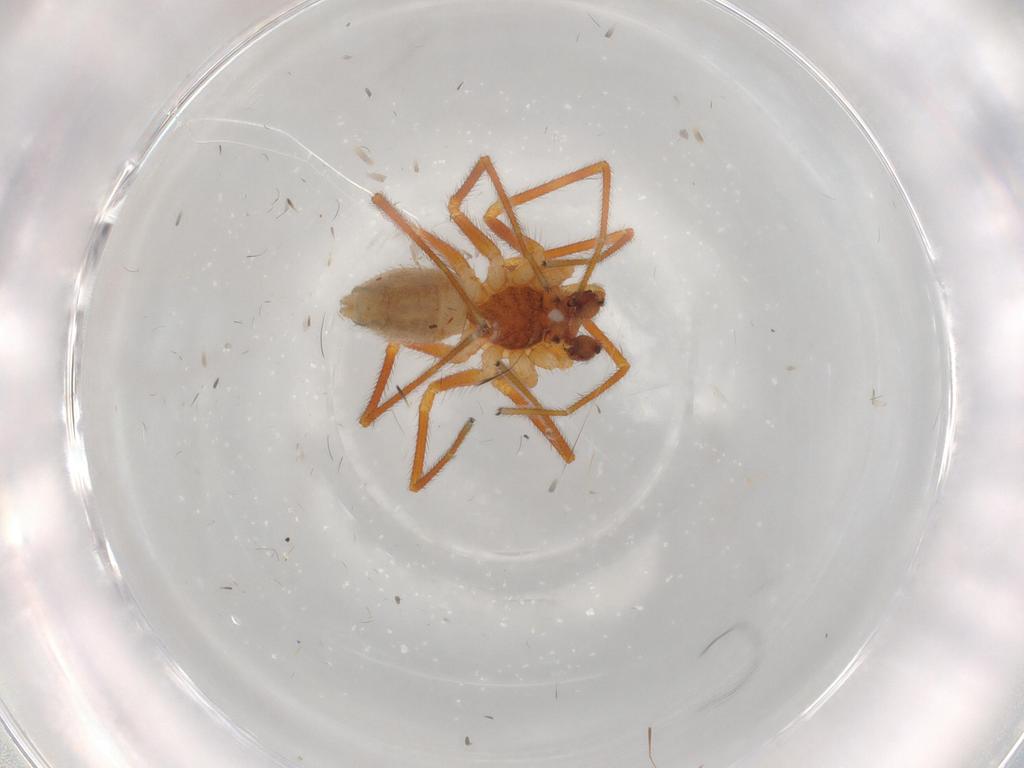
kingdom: Animalia
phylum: Arthropoda
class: Arachnida
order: Araneae
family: Linyphiidae
